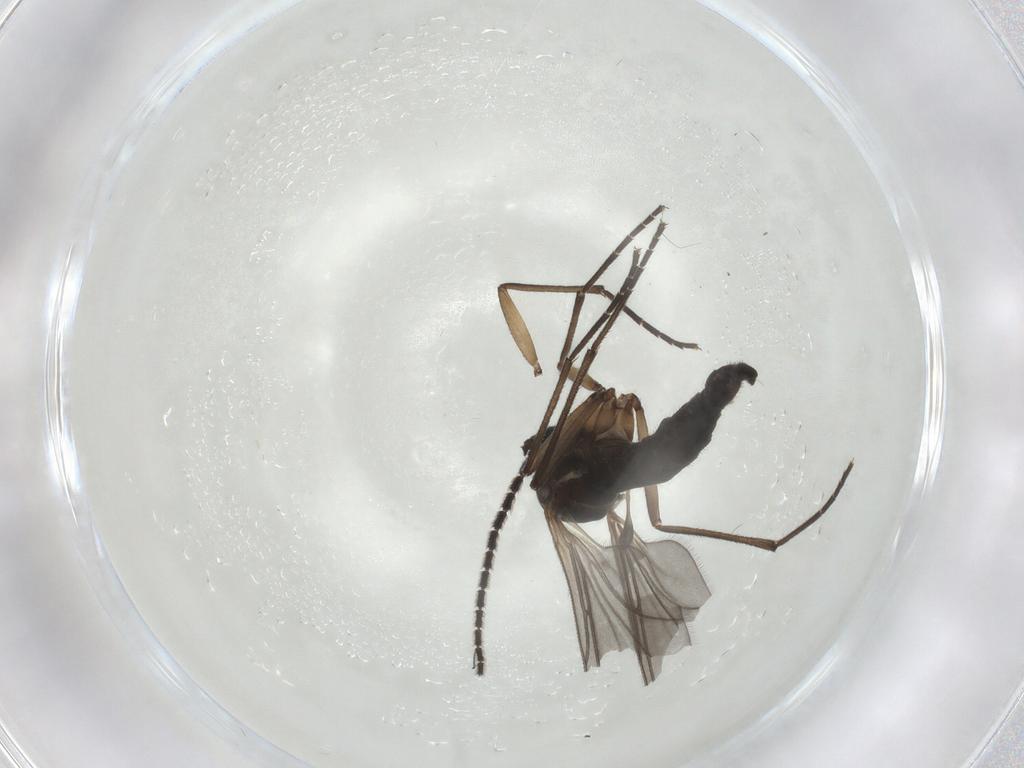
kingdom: Animalia
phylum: Arthropoda
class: Insecta
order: Diptera
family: Sciaridae
